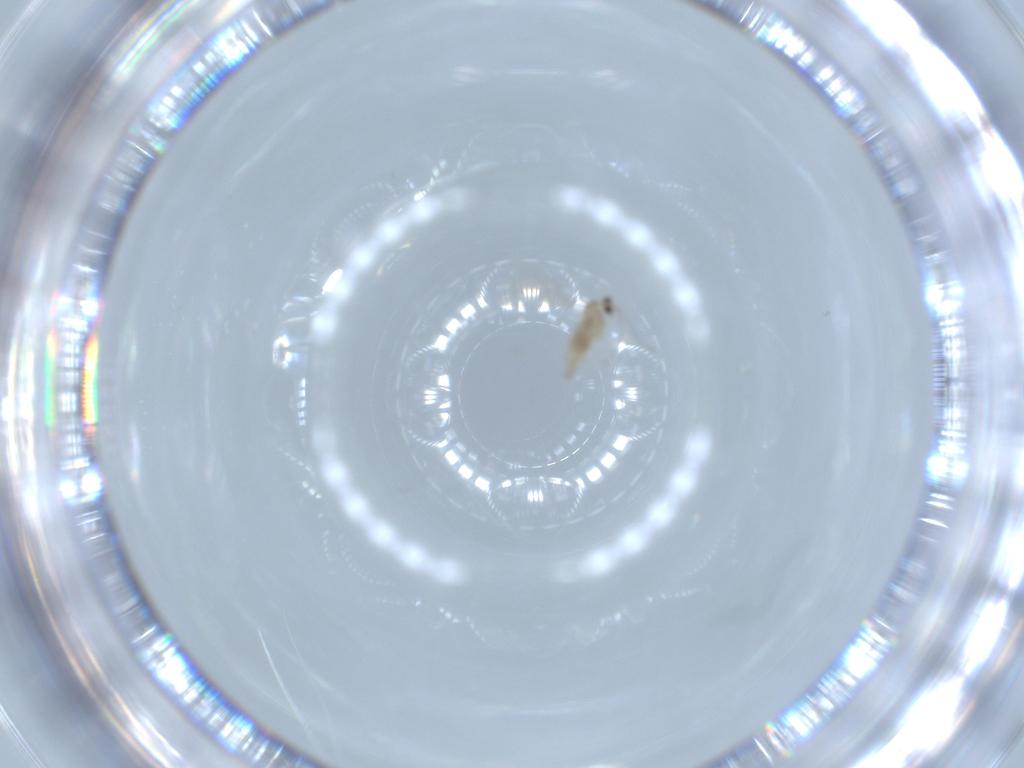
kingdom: Animalia
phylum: Arthropoda
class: Insecta
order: Diptera
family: Cecidomyiidae
